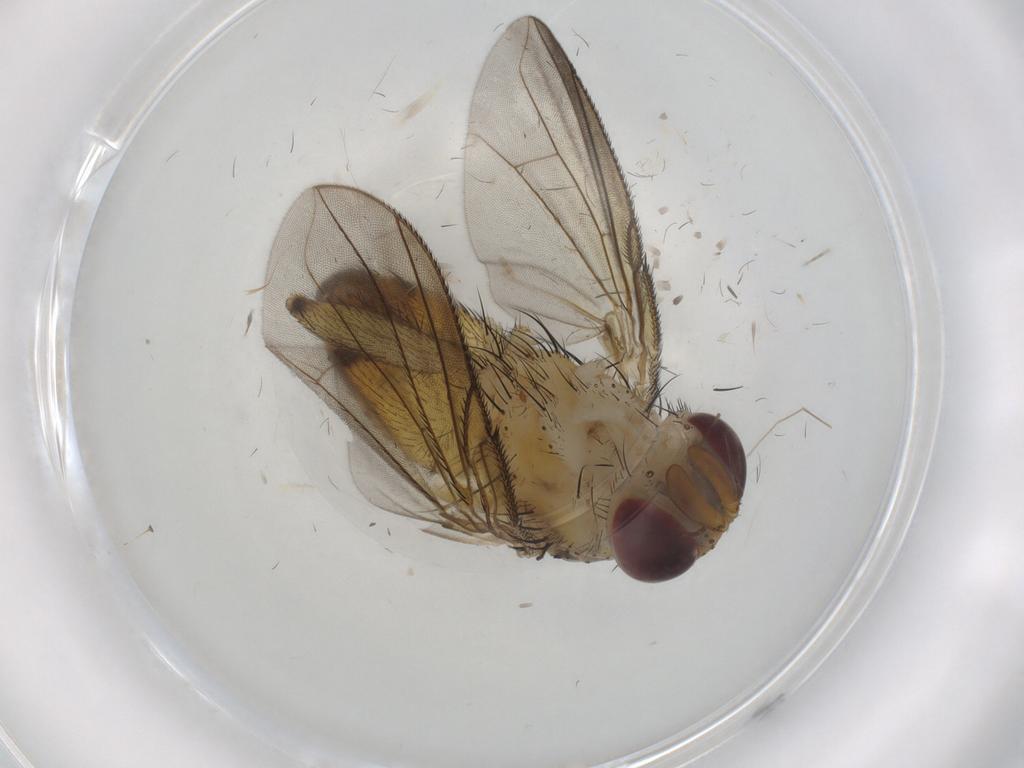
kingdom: Animalia
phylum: Arthropoda
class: Insecta
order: Diptera
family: Tachinidae
